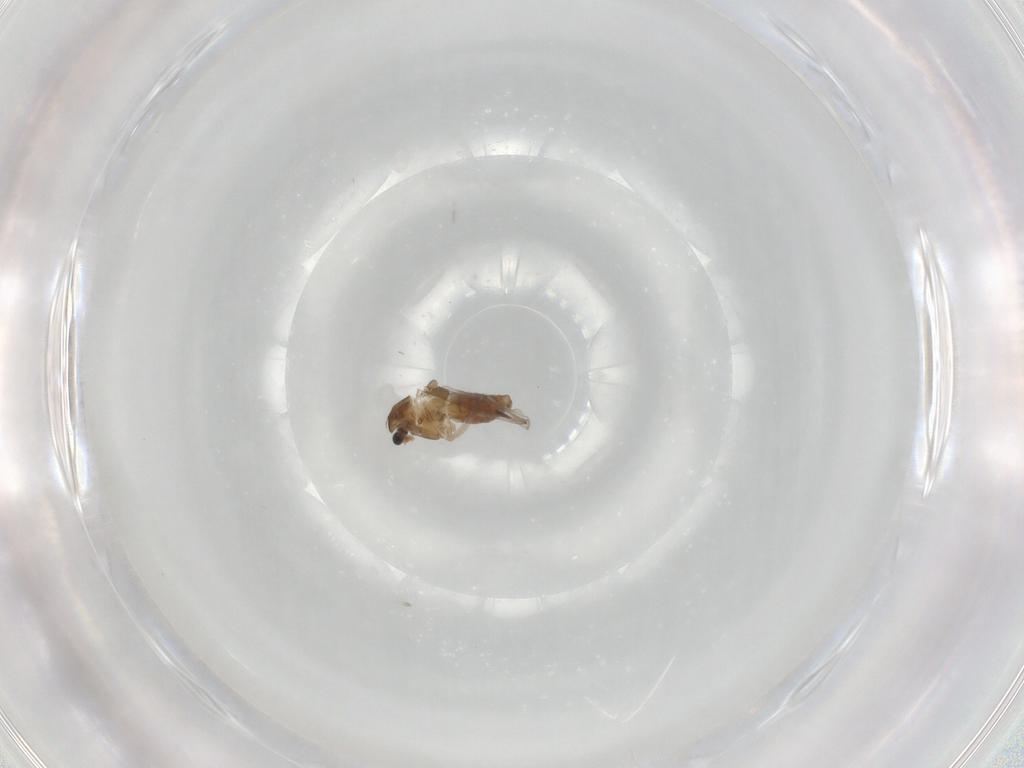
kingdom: Animalia
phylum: Arthropoda
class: Insecta
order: Diptera
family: Chironomidae
